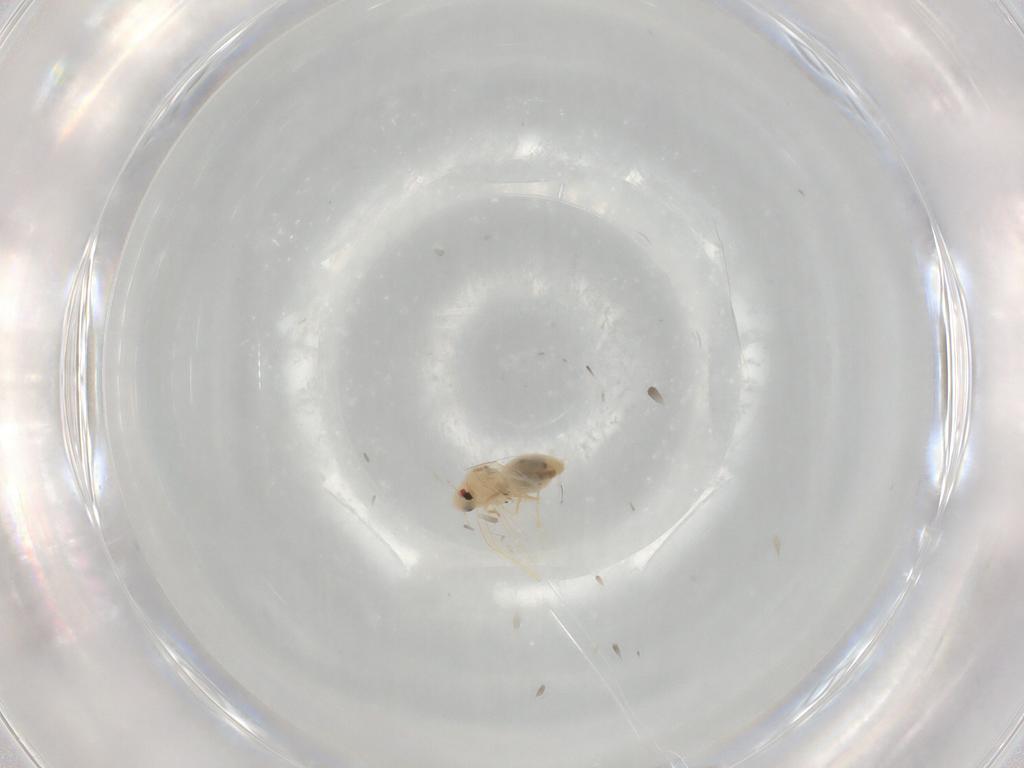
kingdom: Animalia
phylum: Arthropoda
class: Insecta
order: Hemiptera
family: Aleyrodidae
